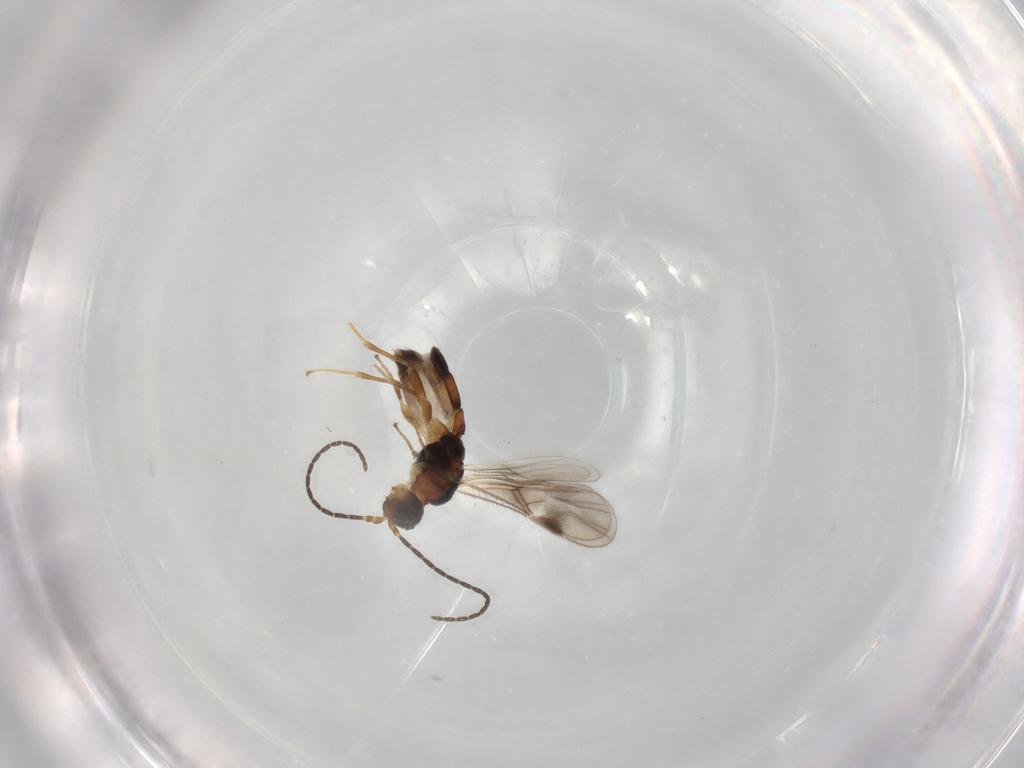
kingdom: Animalia
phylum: Arthropoda
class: Insecta
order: Hymenoptera
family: Braconidae
